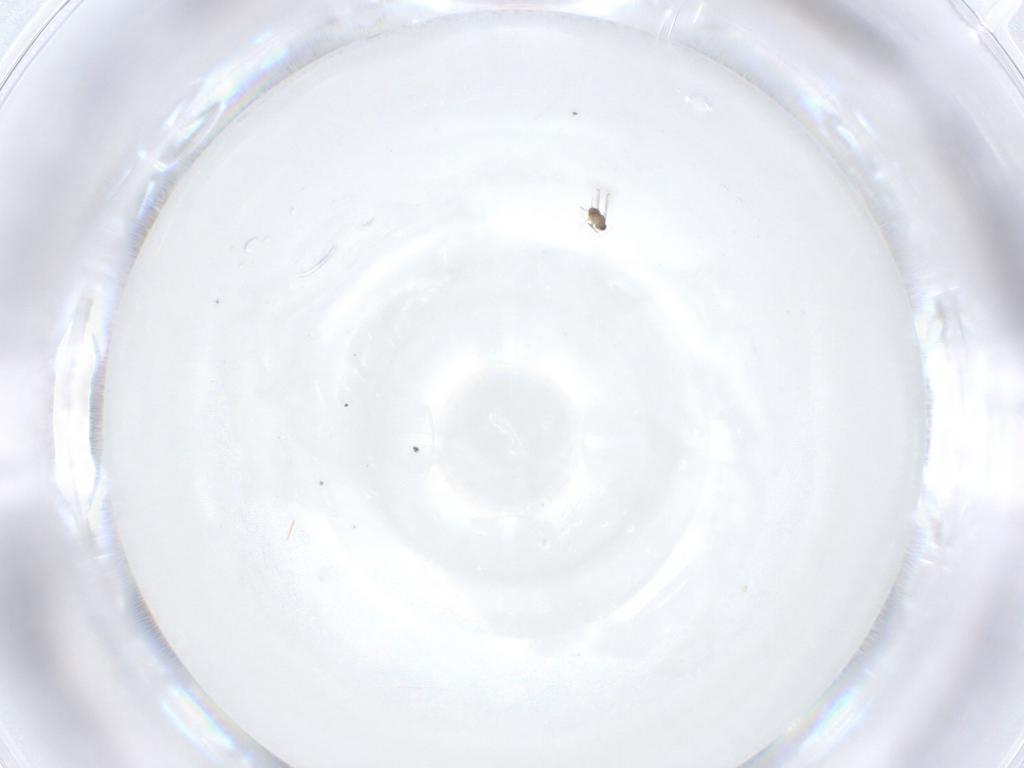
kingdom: Animalia
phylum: Arthropoda
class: Insecta
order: Hymenoptera
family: Mymaridae
